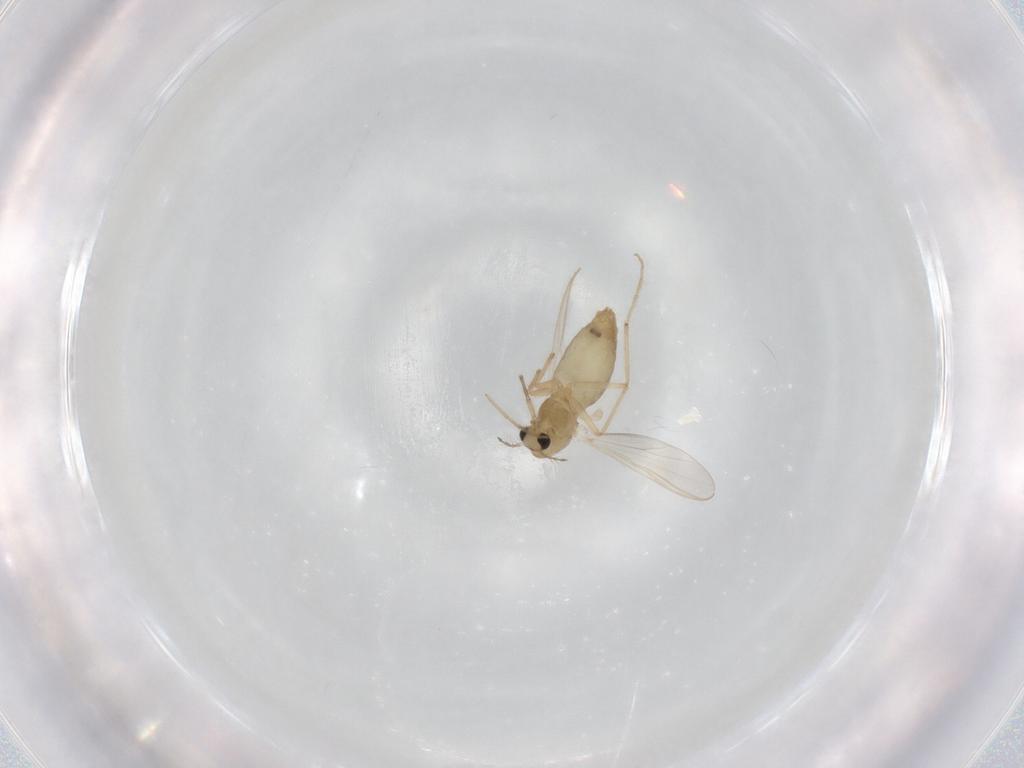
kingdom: Animalia
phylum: Arthropoda
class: Insecta
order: Diptera
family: Chironomidae
